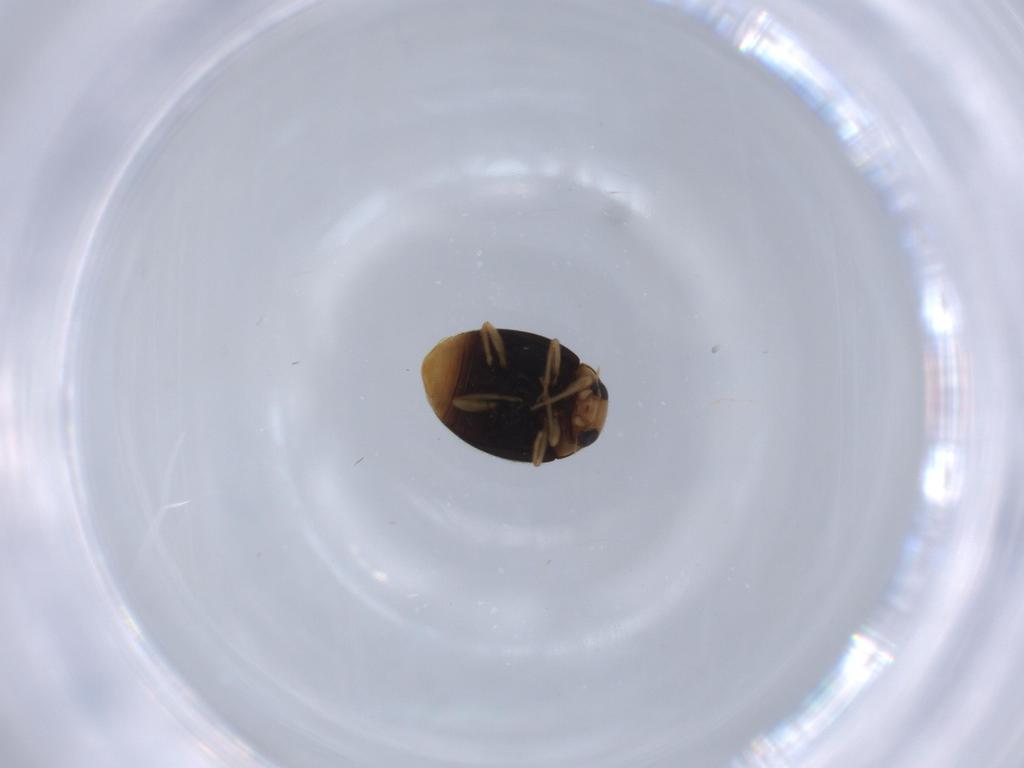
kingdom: Animalia
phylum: Arthropoda
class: Insecta
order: Coleoptera
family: Chrysomelidae
